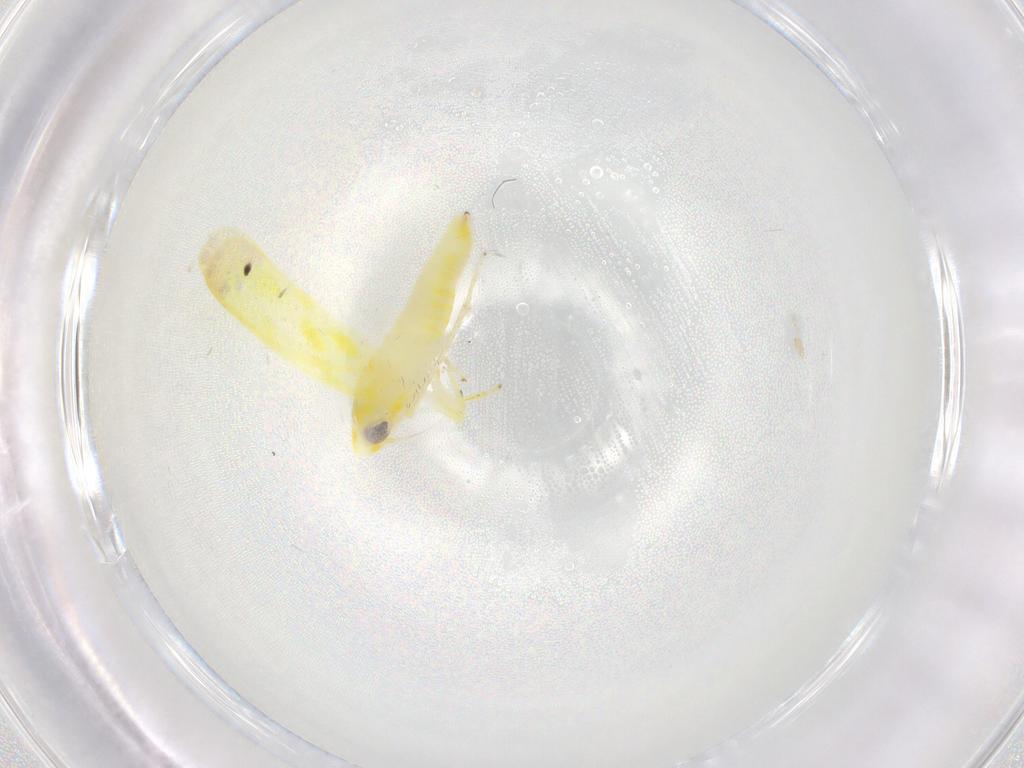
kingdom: Animalia
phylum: Arthropoda
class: Insecta
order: Hemiptera
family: Cicadellidae
